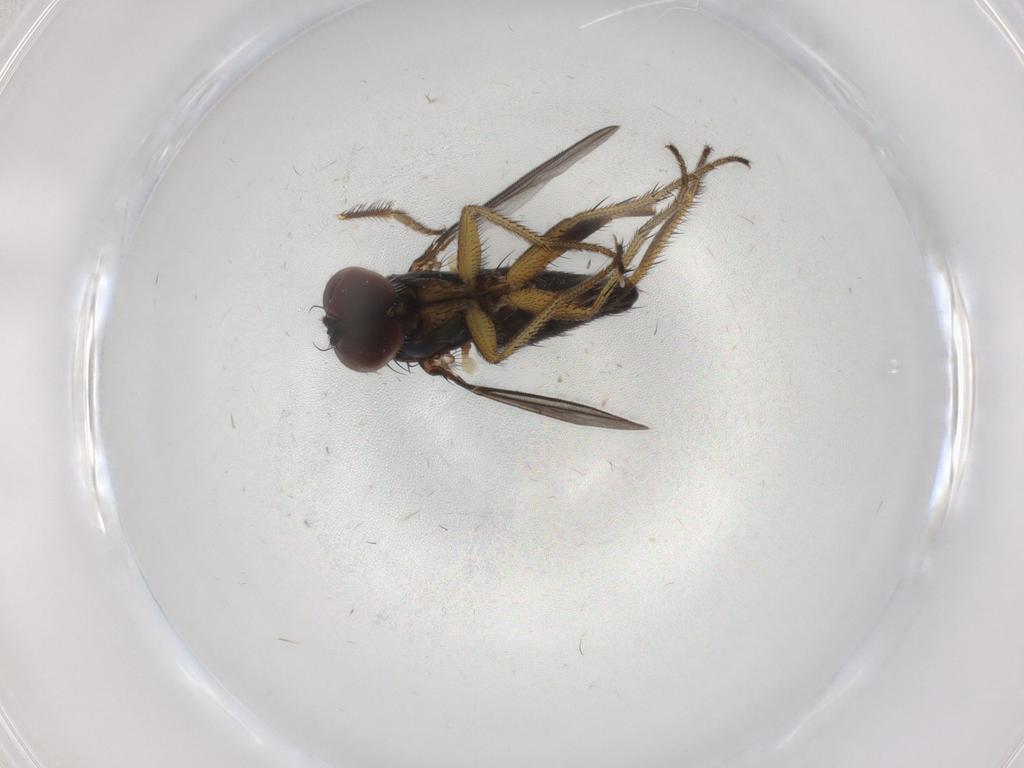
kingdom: Animalia
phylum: Arthropoda
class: Insecta
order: Diptera
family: Dolichopodidae
